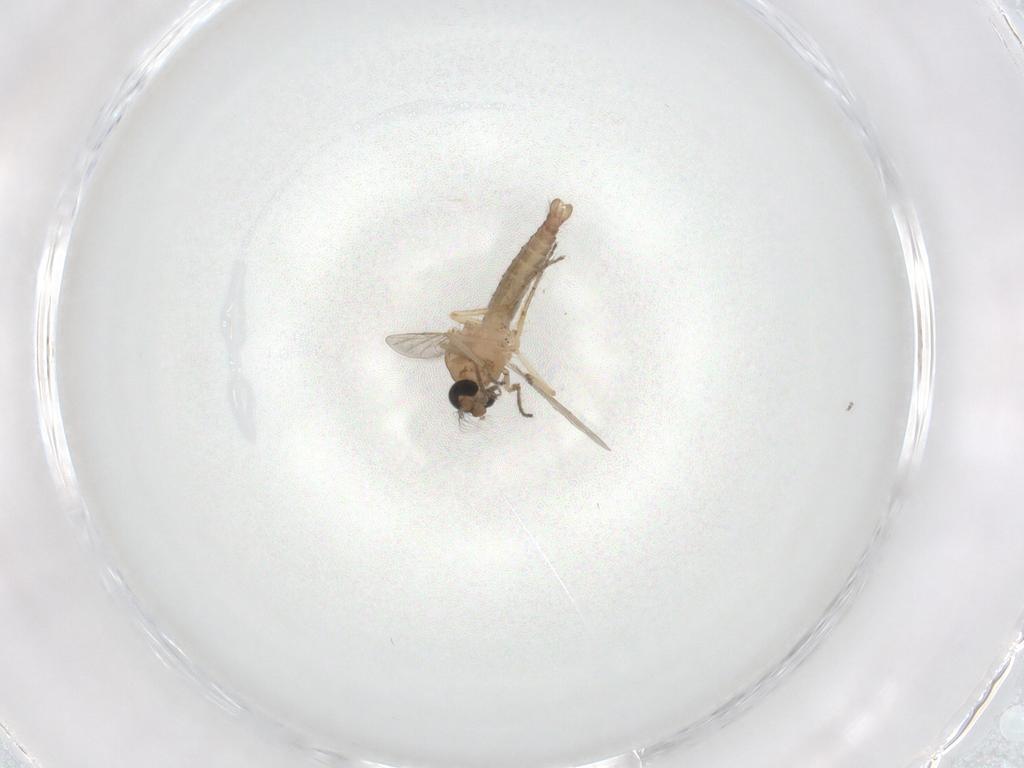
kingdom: Animalia
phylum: Arthropoda
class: Insecta
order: Diptera
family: Ceratopogonidae
